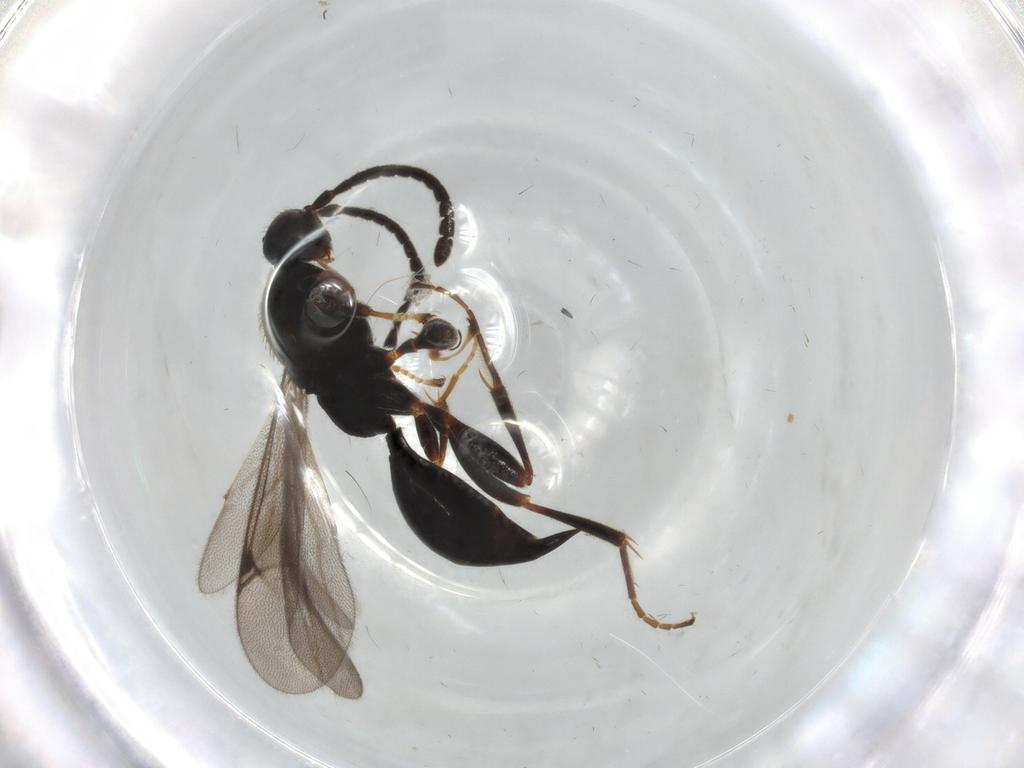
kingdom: Animalia
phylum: Arthropoda
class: Insecta
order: Hymenoptera
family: Proctotrupidae
